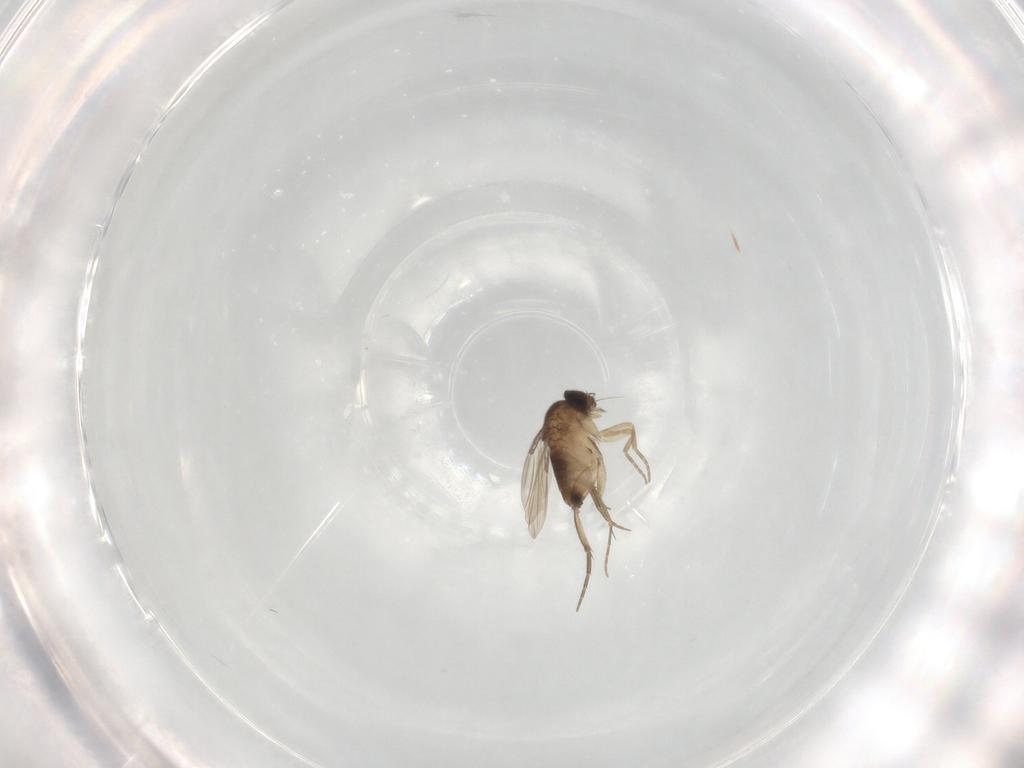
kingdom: Animalia
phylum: Arthropoda
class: Insecta
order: Diptera
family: Phoridae
